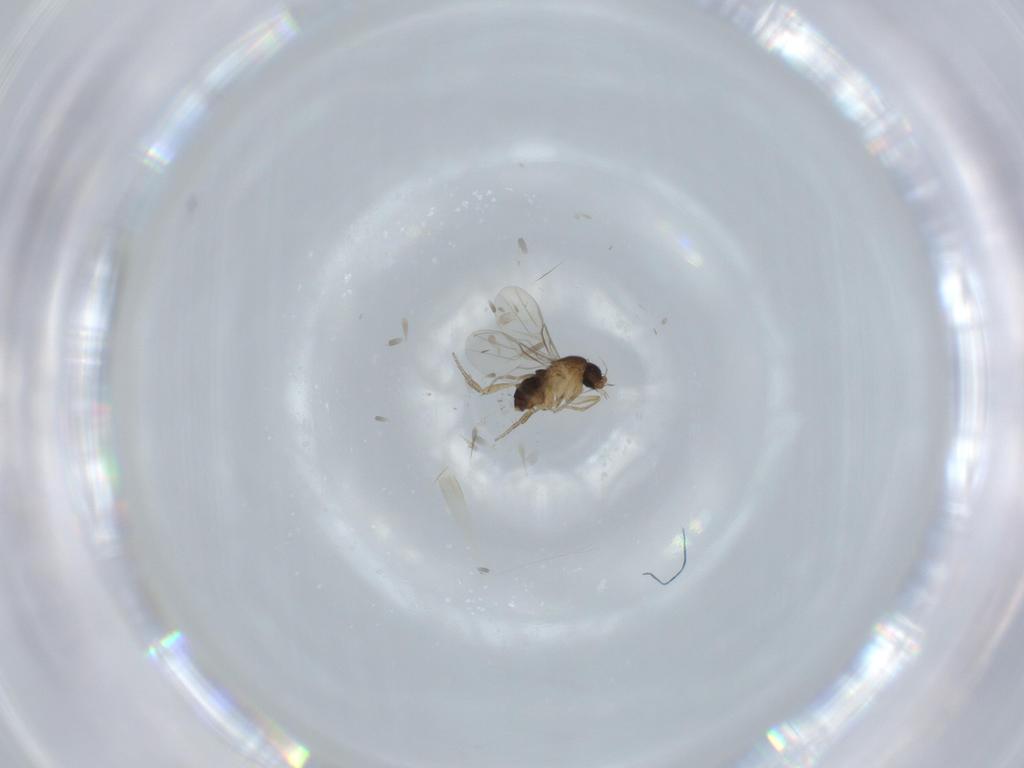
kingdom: Animalia
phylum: Arthropoda
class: Insecta
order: Diptera
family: Phoridae
